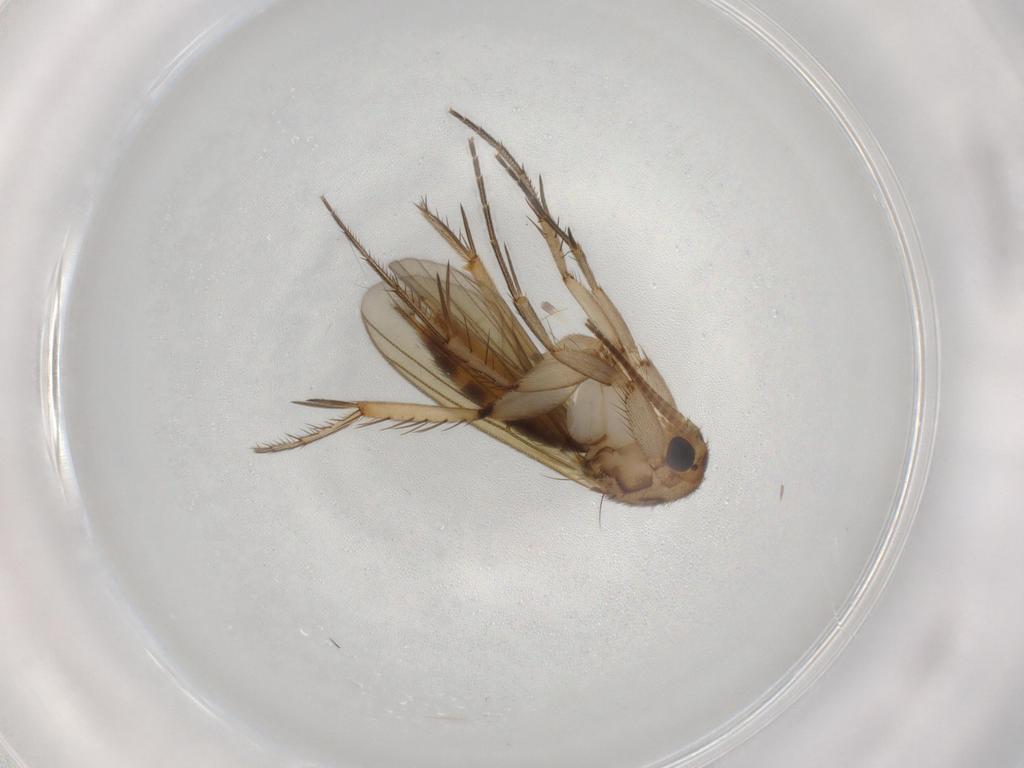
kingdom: Animalia
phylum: Arthropoda
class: Insecta
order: Diptera
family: Mycetophilidae
